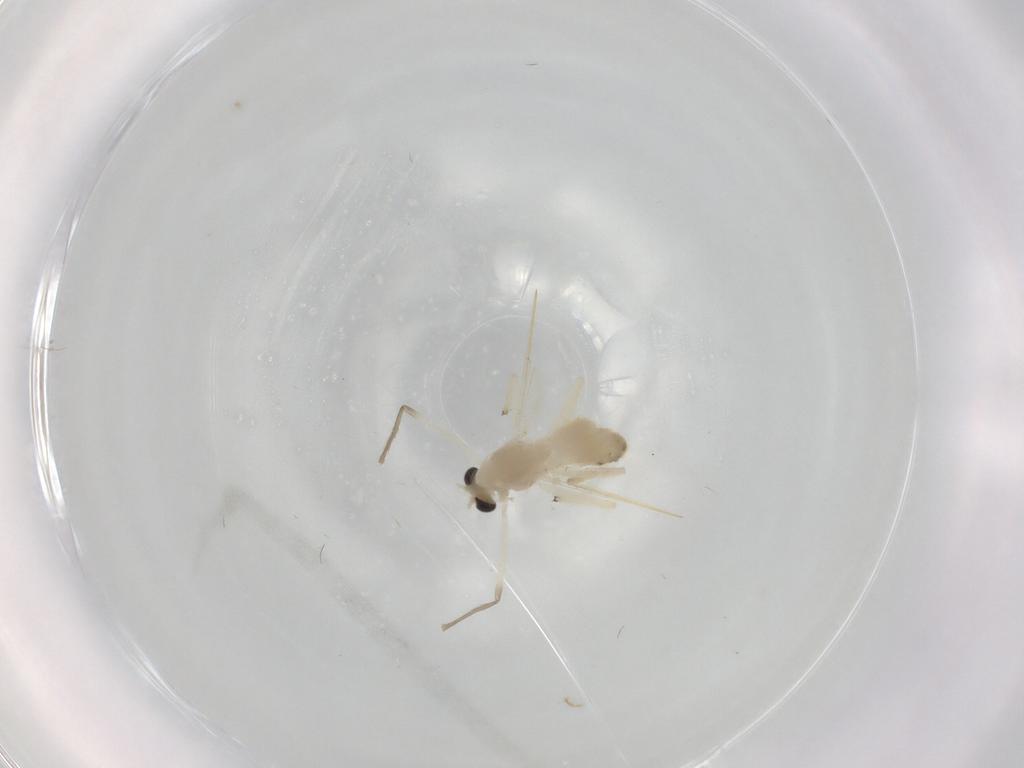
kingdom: Animalia
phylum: Arthropoda
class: Insecta
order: Diptera
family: Chironomidae
